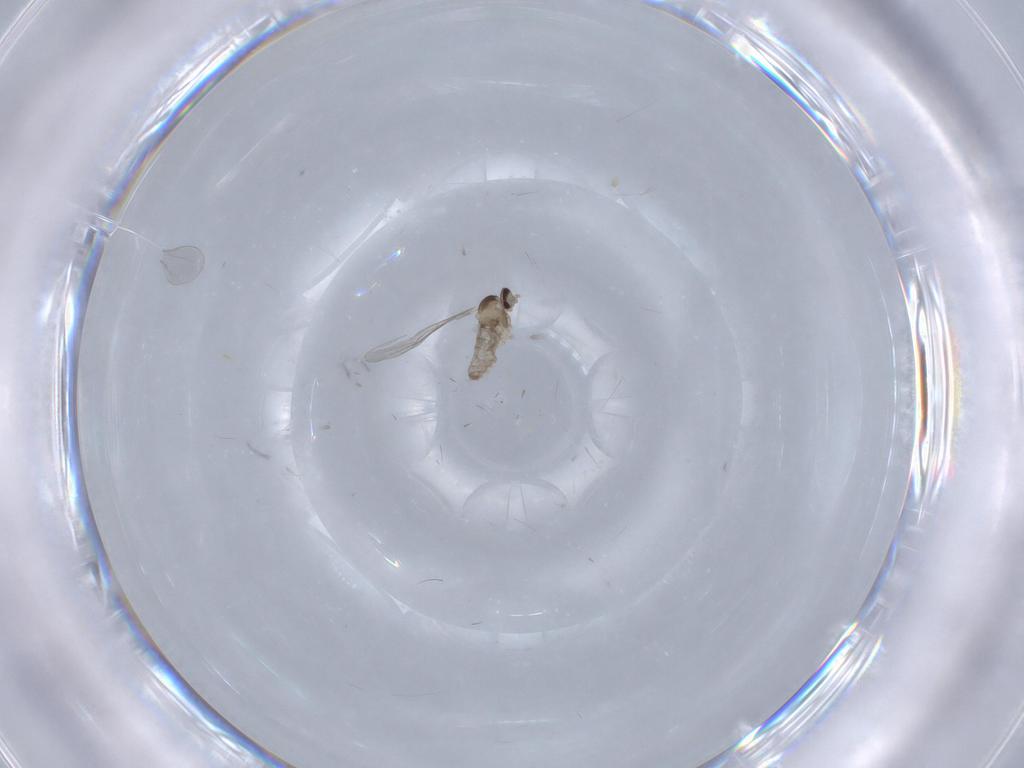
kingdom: Animalia
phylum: Arthropoda
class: Insecta
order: Diptera
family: Cecidomyiidae
